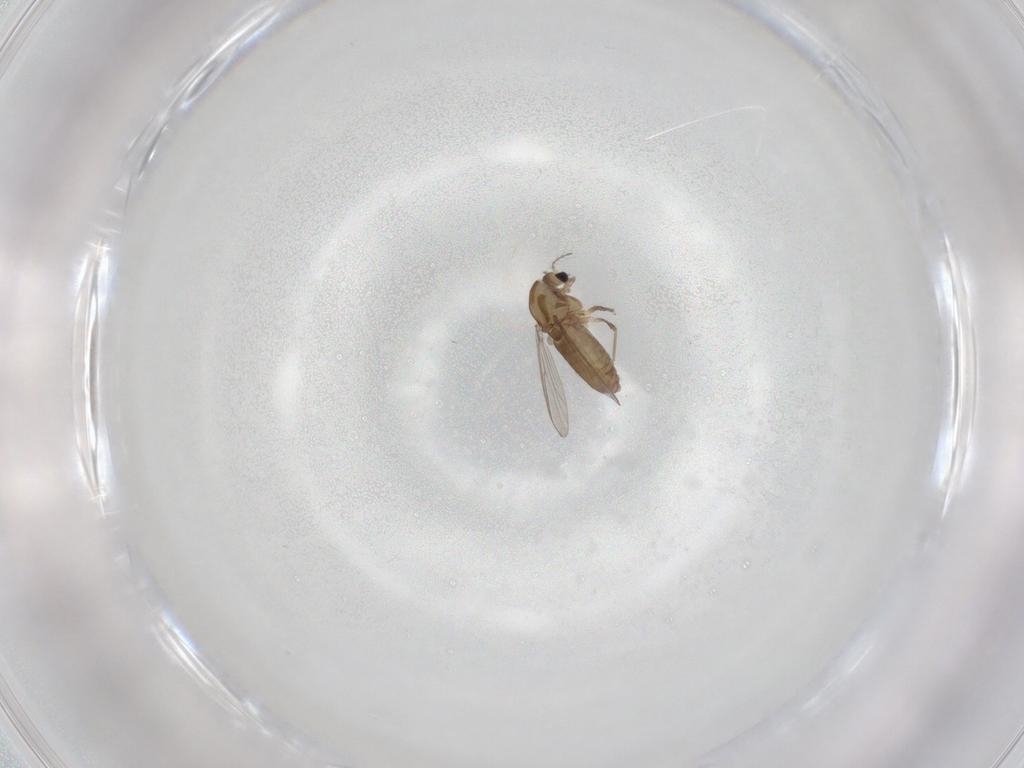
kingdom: Animalia
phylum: Arthropoda
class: Insecta
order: Diptera
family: Chironomidae
